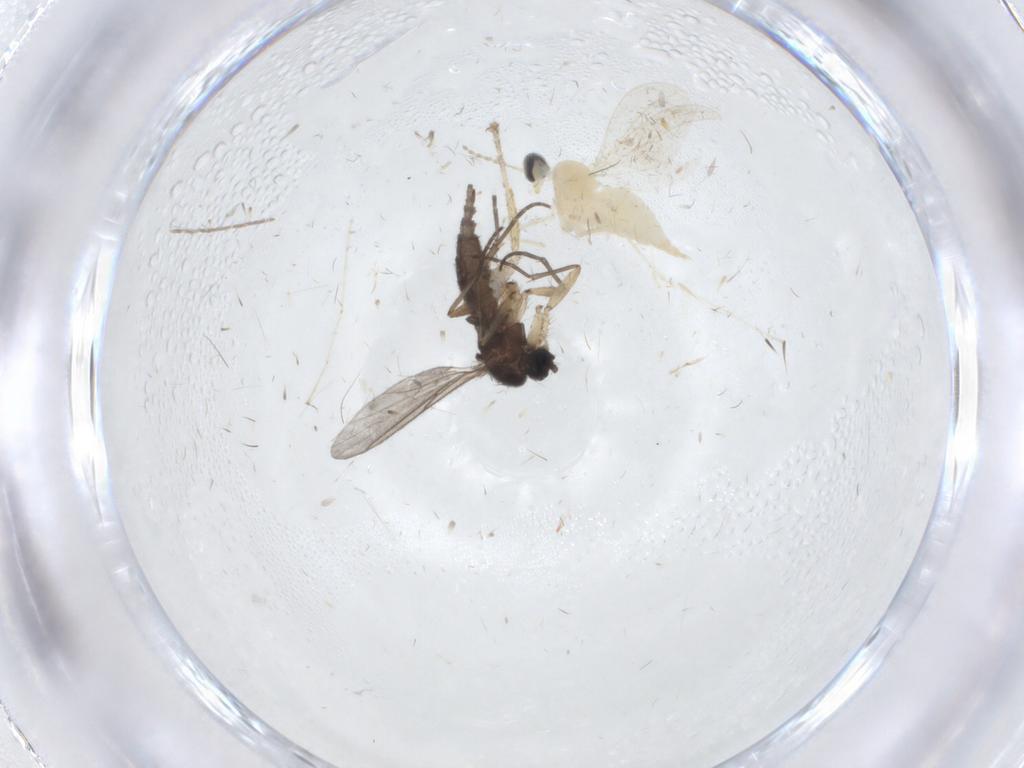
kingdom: Animalia
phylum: Arthropoda
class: Insecta
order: Diptera
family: Cecidomyiidae
